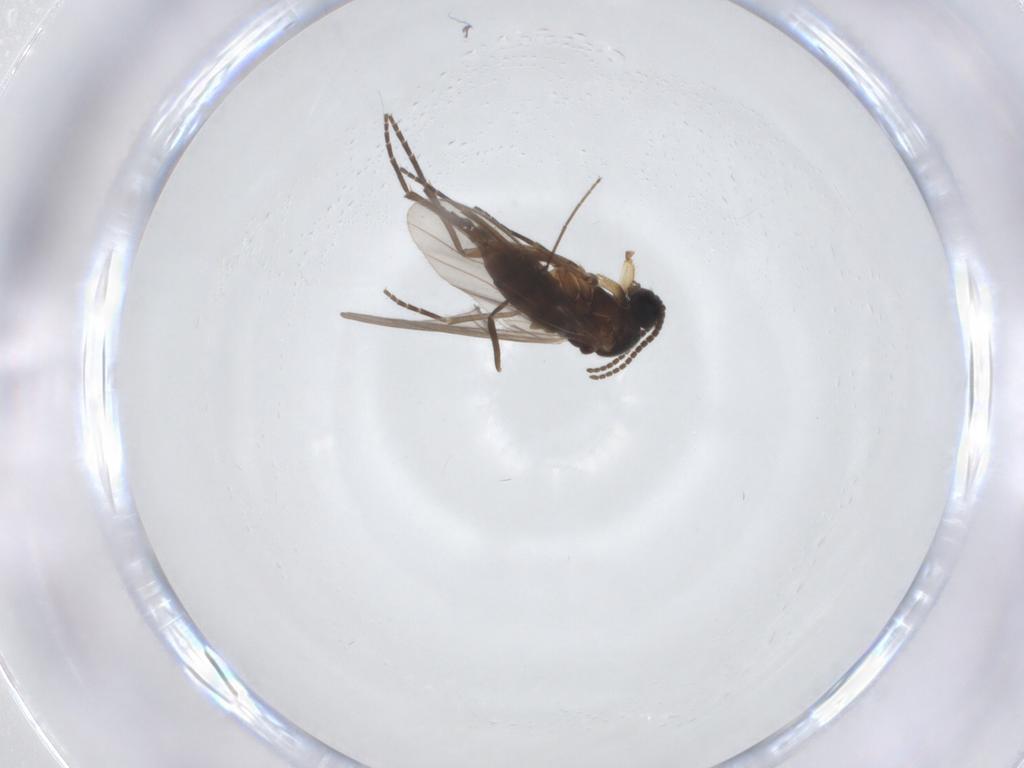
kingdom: Animalia
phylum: Arthropoda
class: Insecta
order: Diptera
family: Sciaridae
